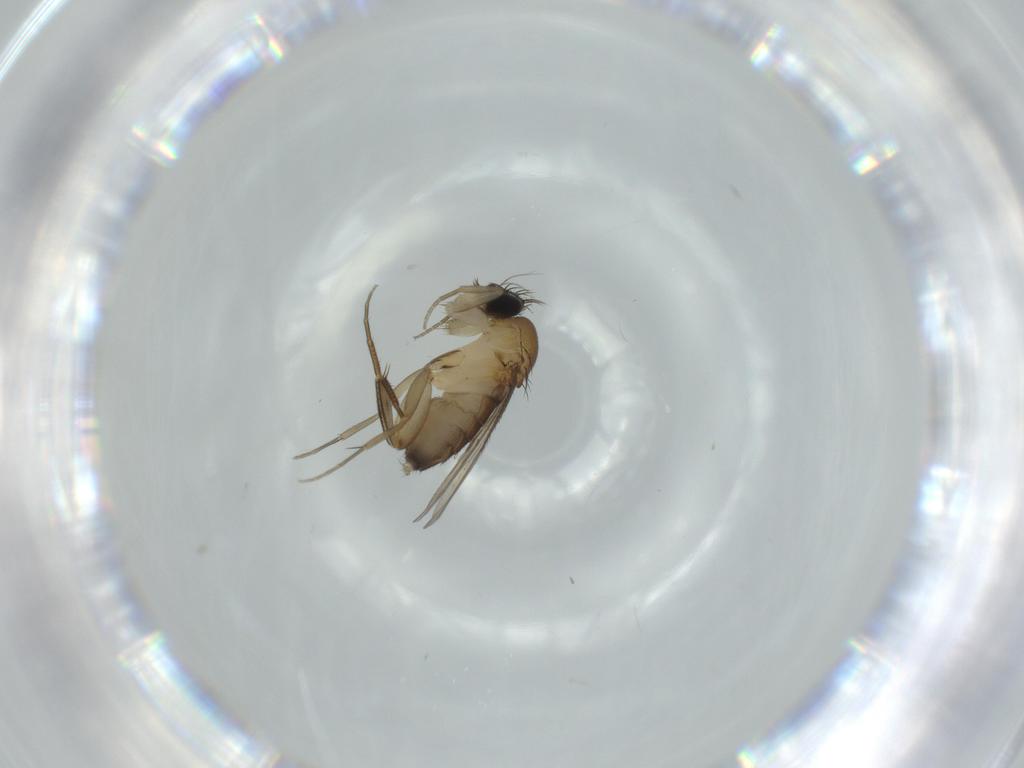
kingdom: Animalia
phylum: Arthropoda
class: Insecta
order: Diptera
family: Phoridae
